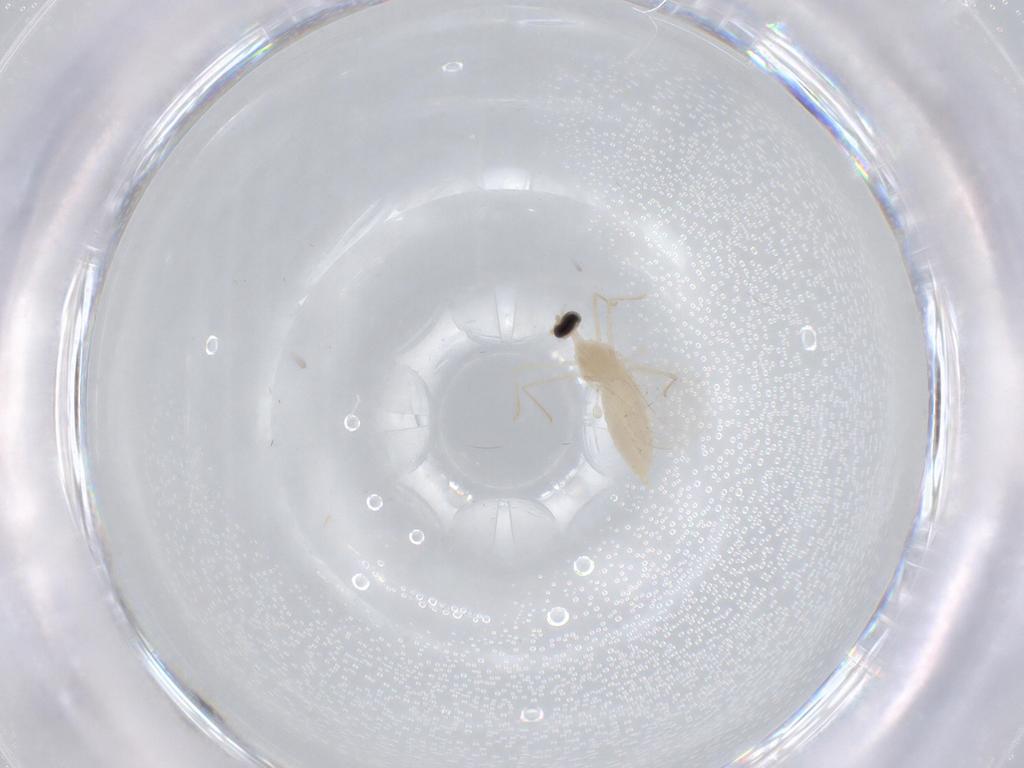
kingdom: Animalia
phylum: Arthropoda
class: Insecta
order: Diptera
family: Cecidomyiidae
